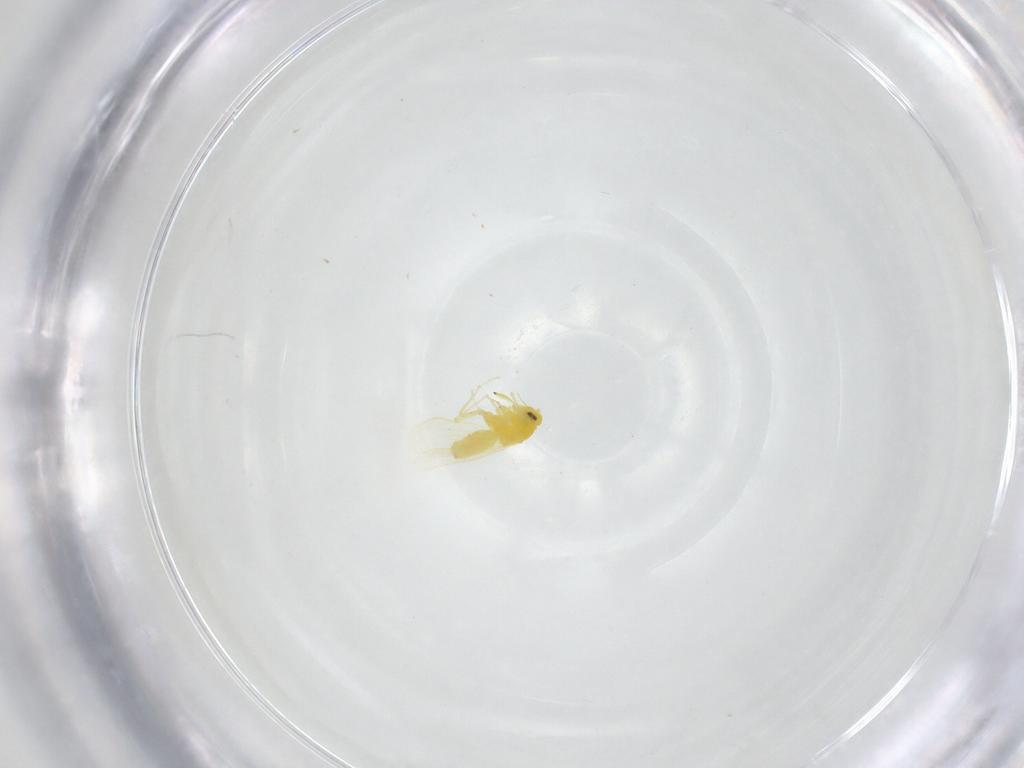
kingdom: Animalia
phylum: Arthropoda
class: Insecta
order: Hemiptera
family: Aleyrodidae
